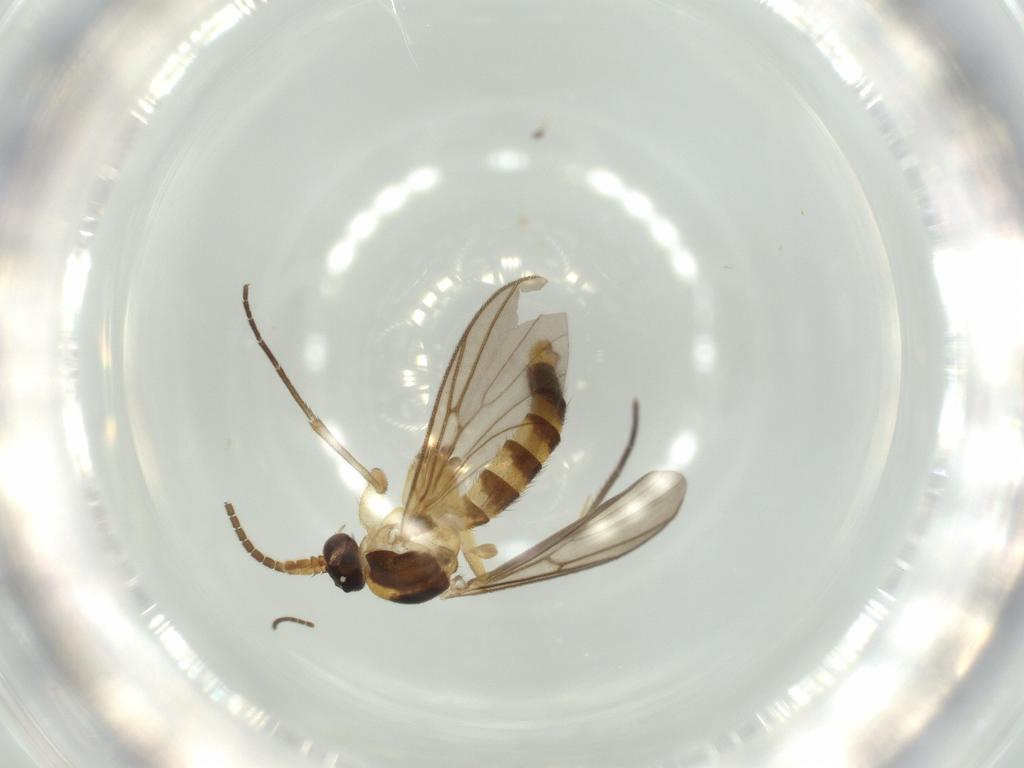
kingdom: Animalia
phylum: Arthropoda
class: Insecta
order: Diptera
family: Mycetophilidae
